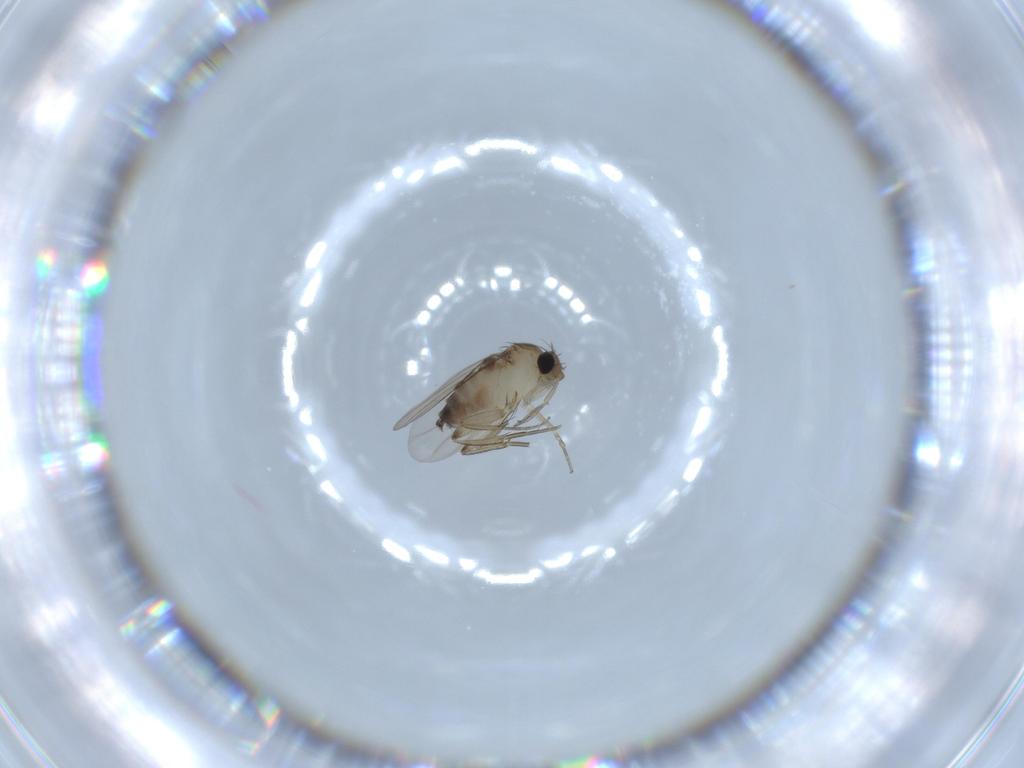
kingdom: Animalia
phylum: Arthropoda
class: Insecta
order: Diptera
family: Phoridae
